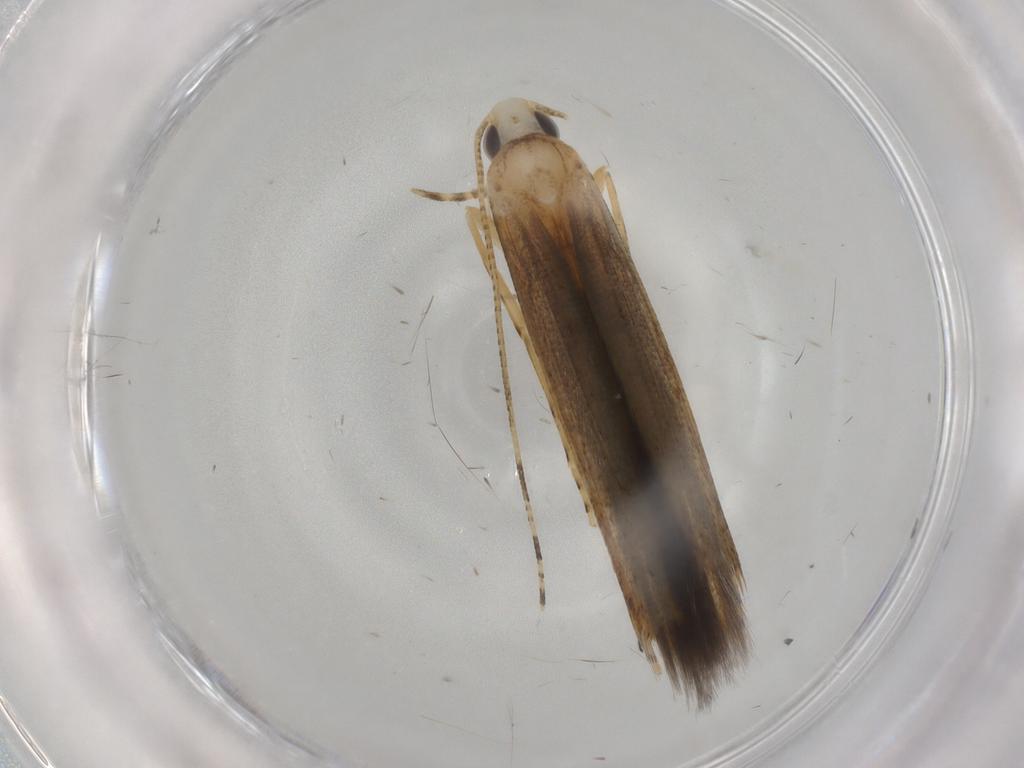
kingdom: Animalia
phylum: Arthropoda
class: Insecta
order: Lepidoptera
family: Batrachedridae
